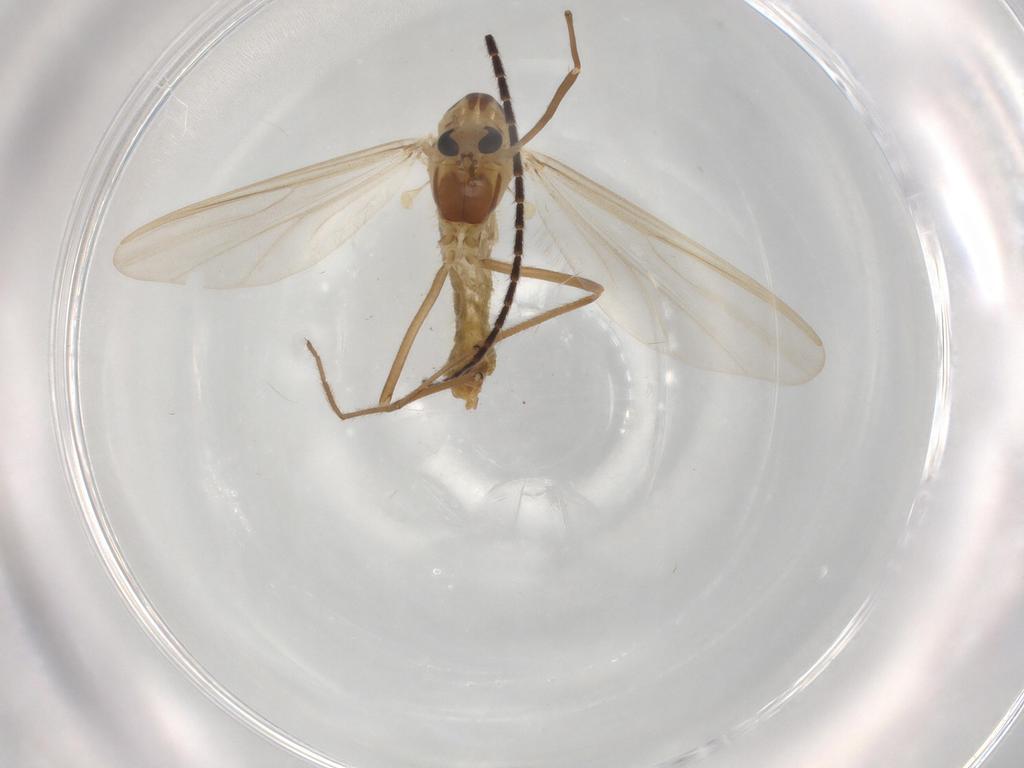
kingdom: Animalia
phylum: Arthropoda
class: Insecta
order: Diptera
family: Hybotidae
